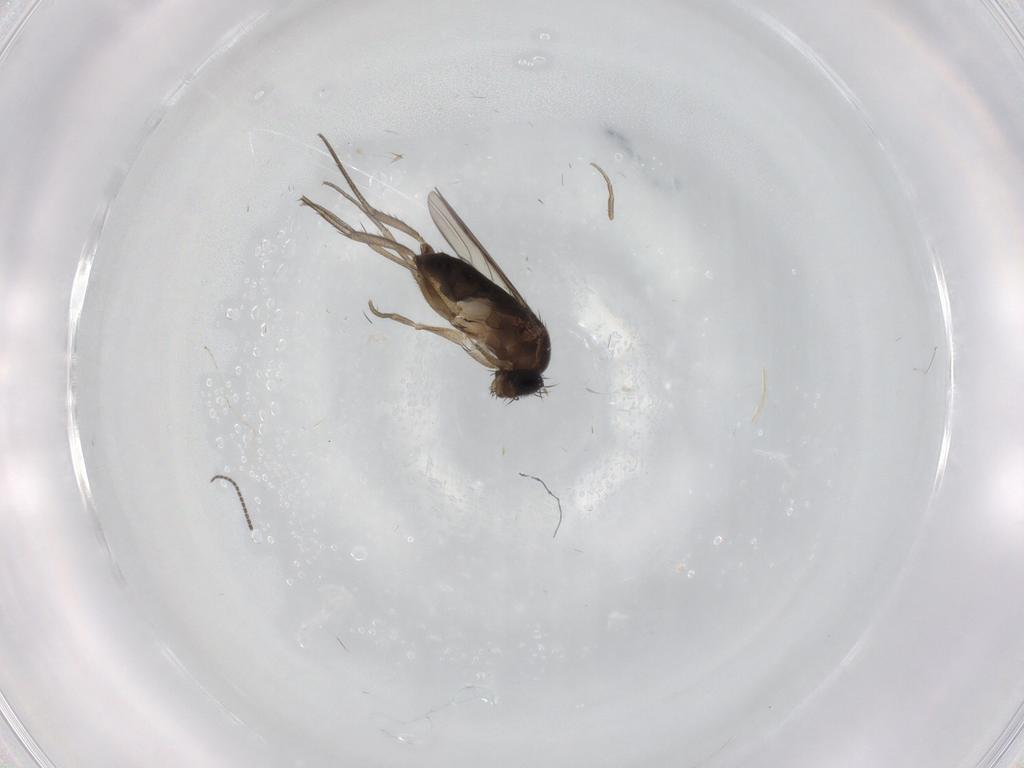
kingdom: Animalia
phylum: Arthropoda
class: Insecta
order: Diptera
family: Phoridae
